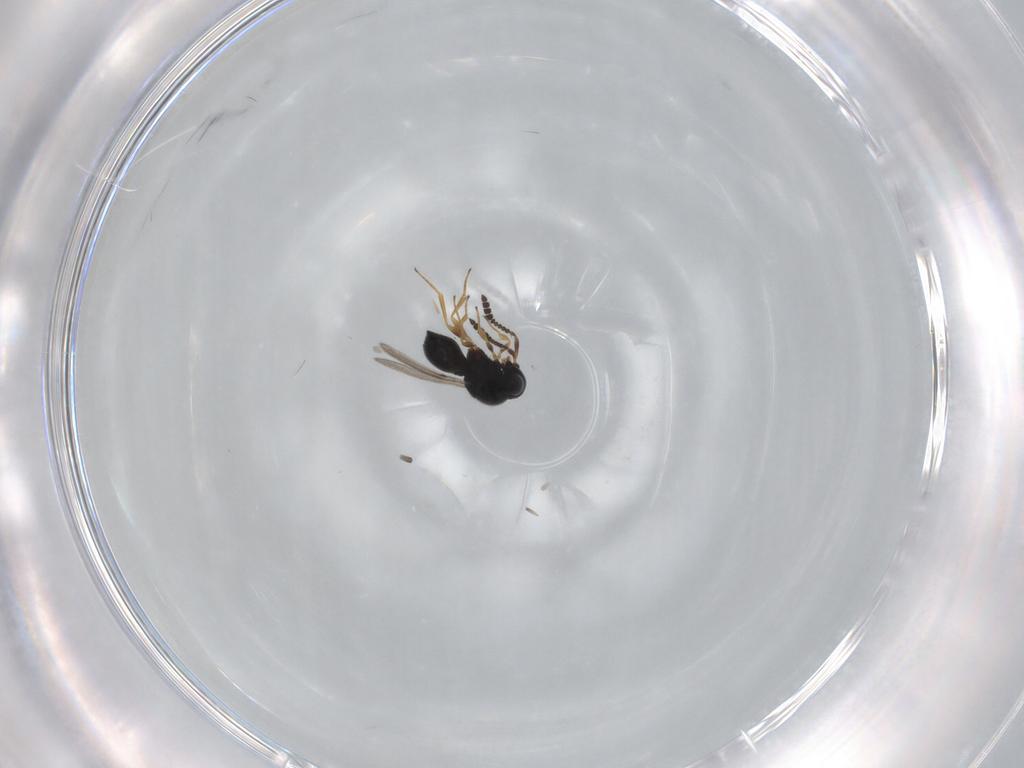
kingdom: Animalia
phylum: Arthropoda
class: Insecta
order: Hymenoptera
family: Scelionidae
